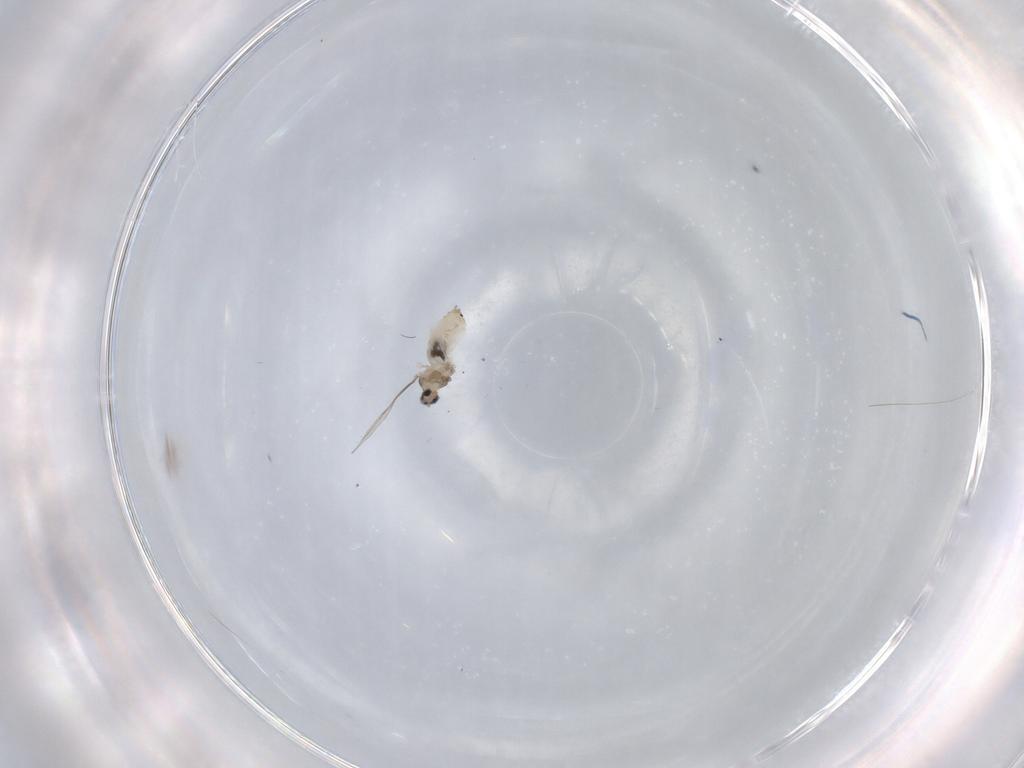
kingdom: Animalia
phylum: Arthropoda
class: Insecta
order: Diptera
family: Cecidomyiidae
